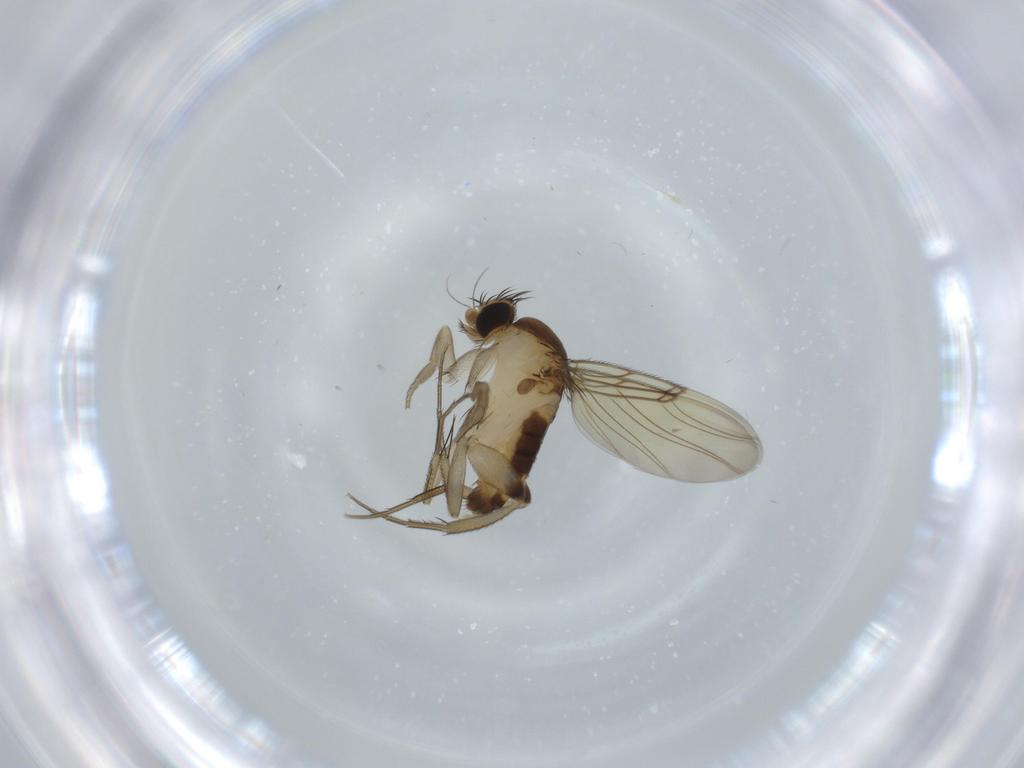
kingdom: Animalia
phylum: Arthropoda
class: Insecta
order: Diptera
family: Phoridae
